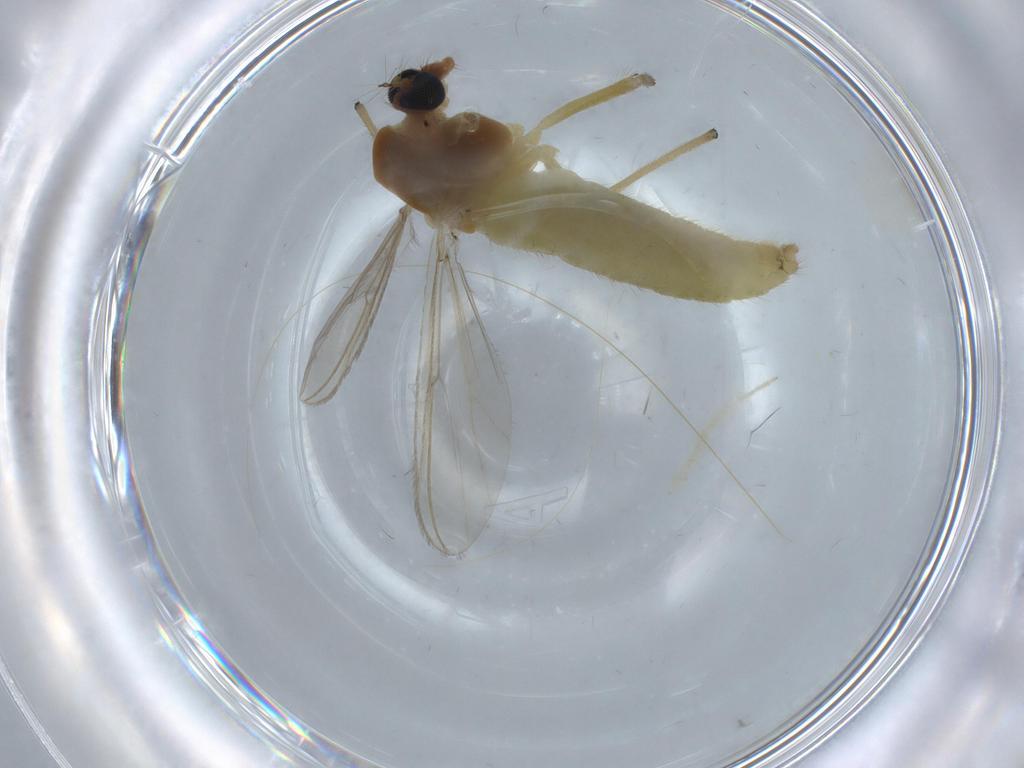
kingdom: Animalia
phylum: Arthropoda
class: Insecta
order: Diptera
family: Chironomidae
